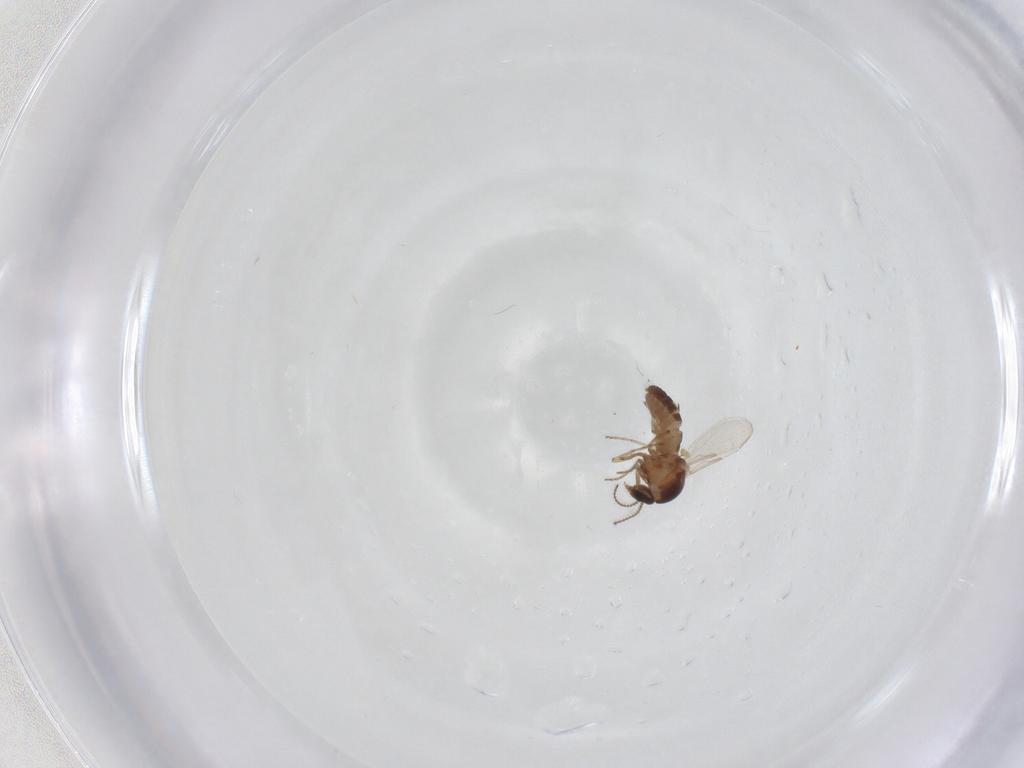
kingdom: Animalia
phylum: Arthropoda
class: Insecta
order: Diptera
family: Ceratopogonidae
